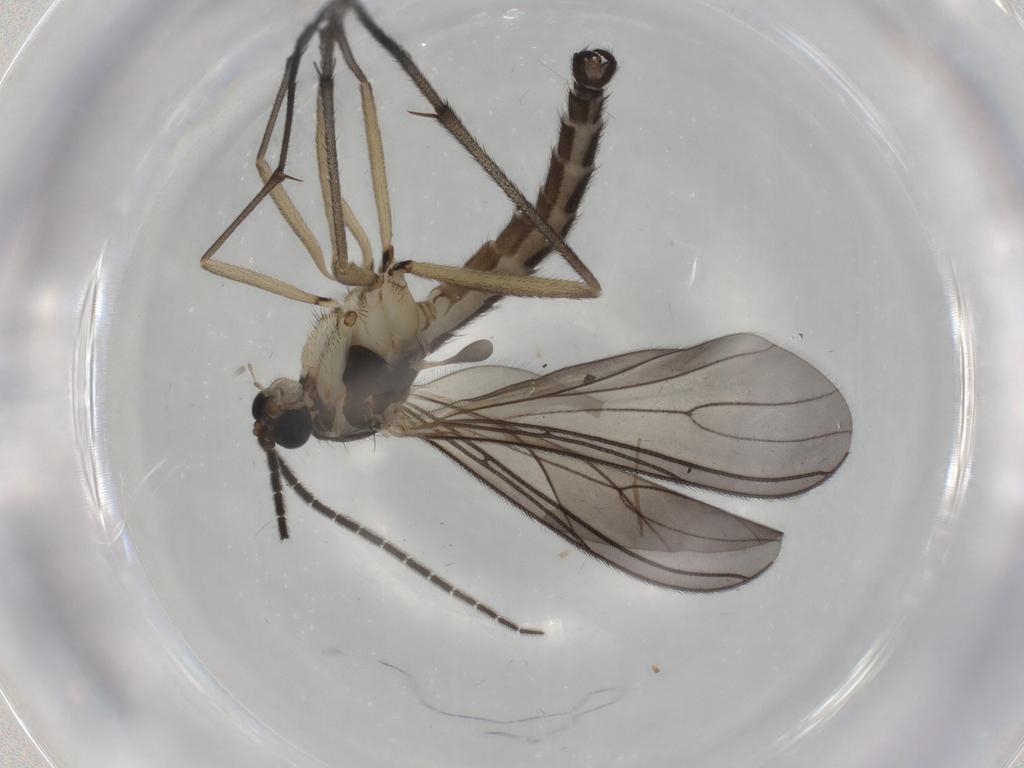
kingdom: Animalia
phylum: Arthropoda
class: Insecta
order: Diptera
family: Sciaridae
